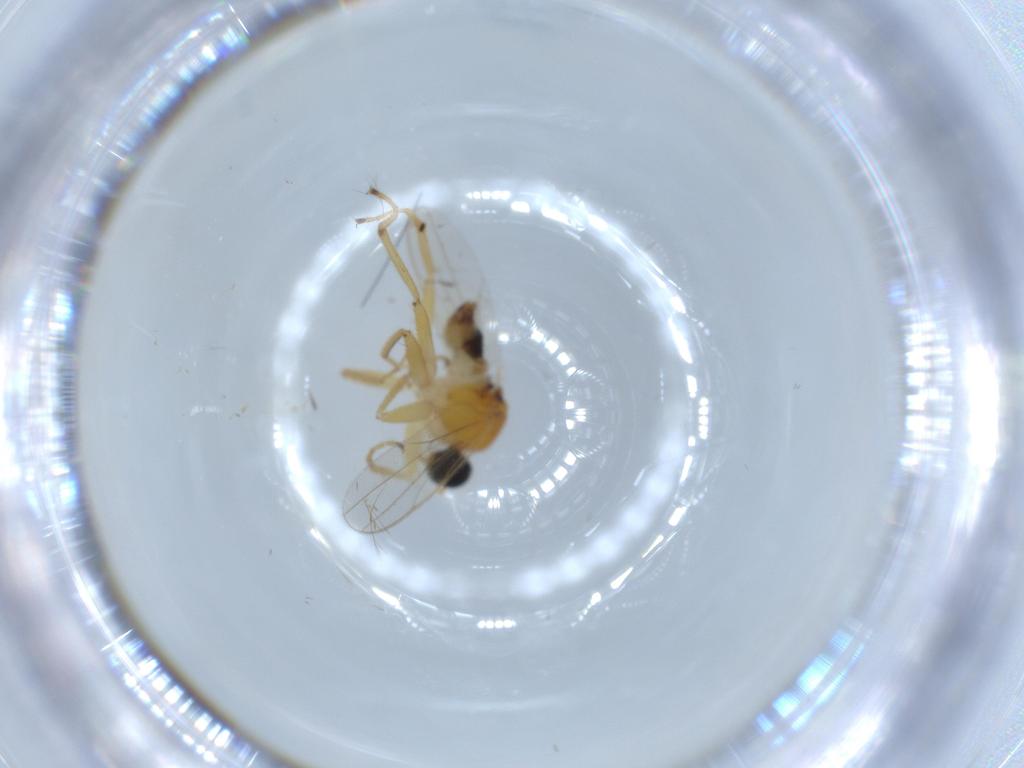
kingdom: Animalia
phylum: Arthropoda
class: Insecta
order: Diptera
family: Hybotidae
